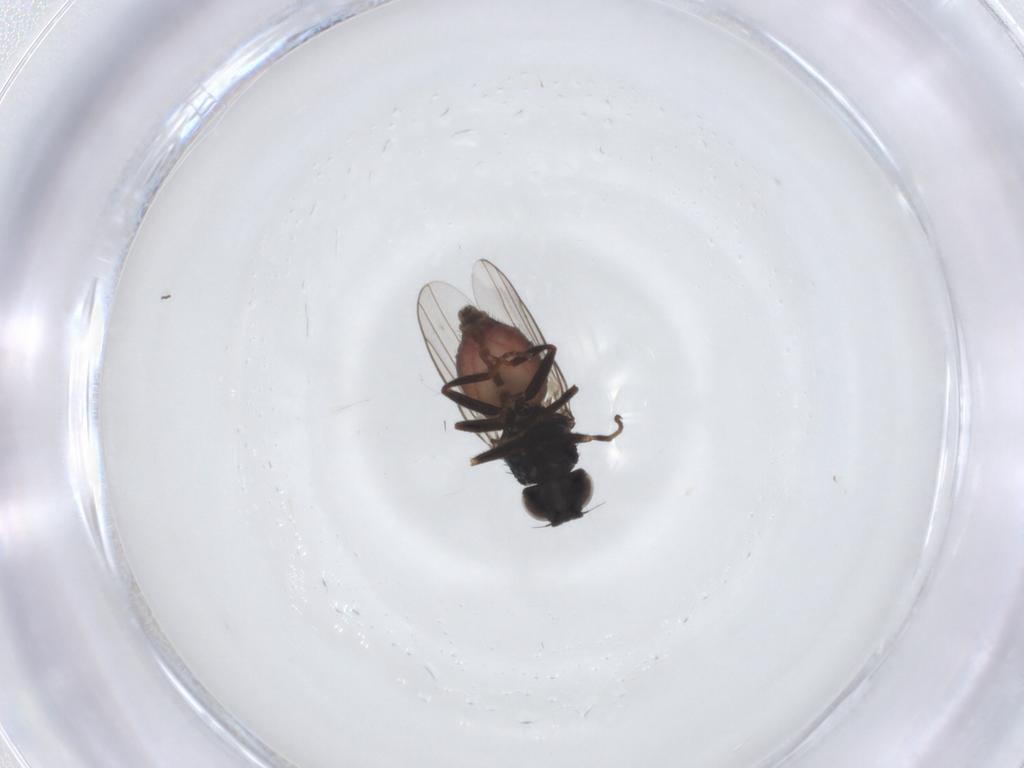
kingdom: Animalia
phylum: Arthropoda
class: Insecta
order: Diptera
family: Chloropidae
